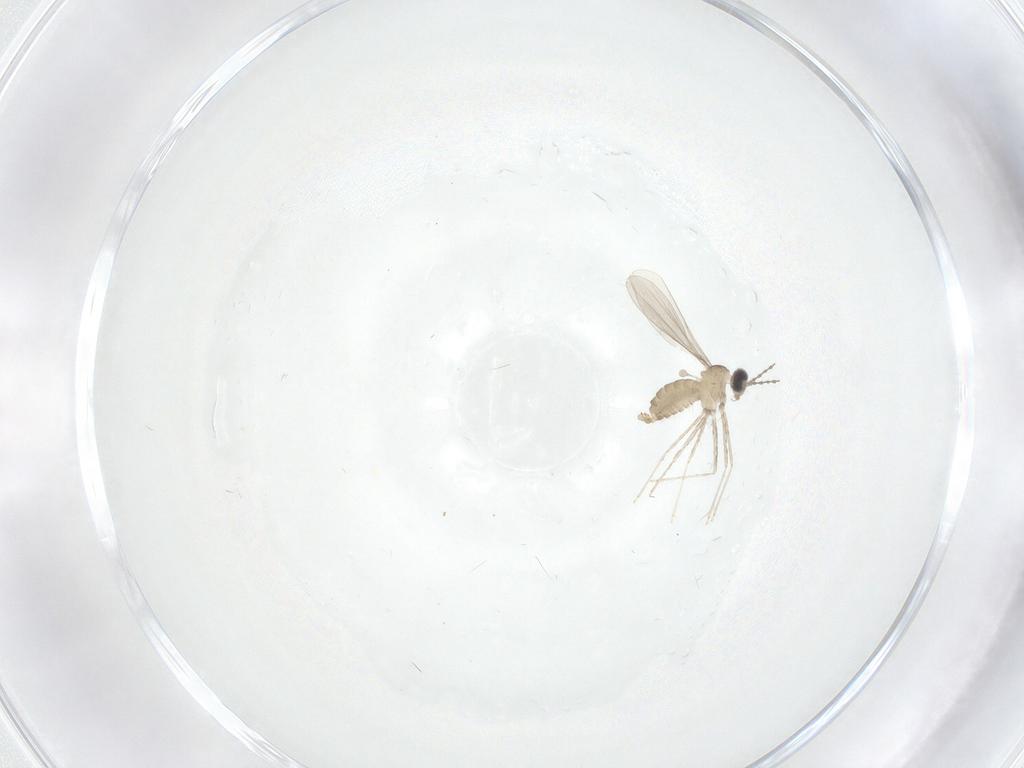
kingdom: Animalia
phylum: Arthropoda
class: Insecta
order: Diptera
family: Cecidomyiidae
